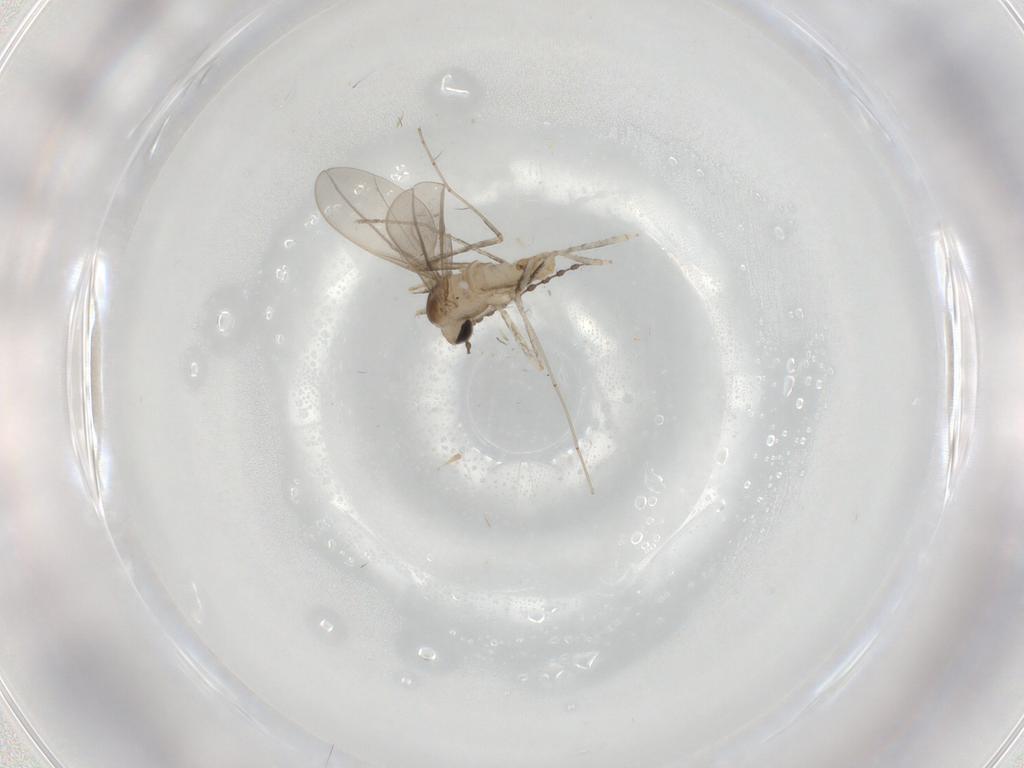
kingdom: Animalia
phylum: Arthropoda
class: Insecta
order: Diptera
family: Cecidomyiidae
